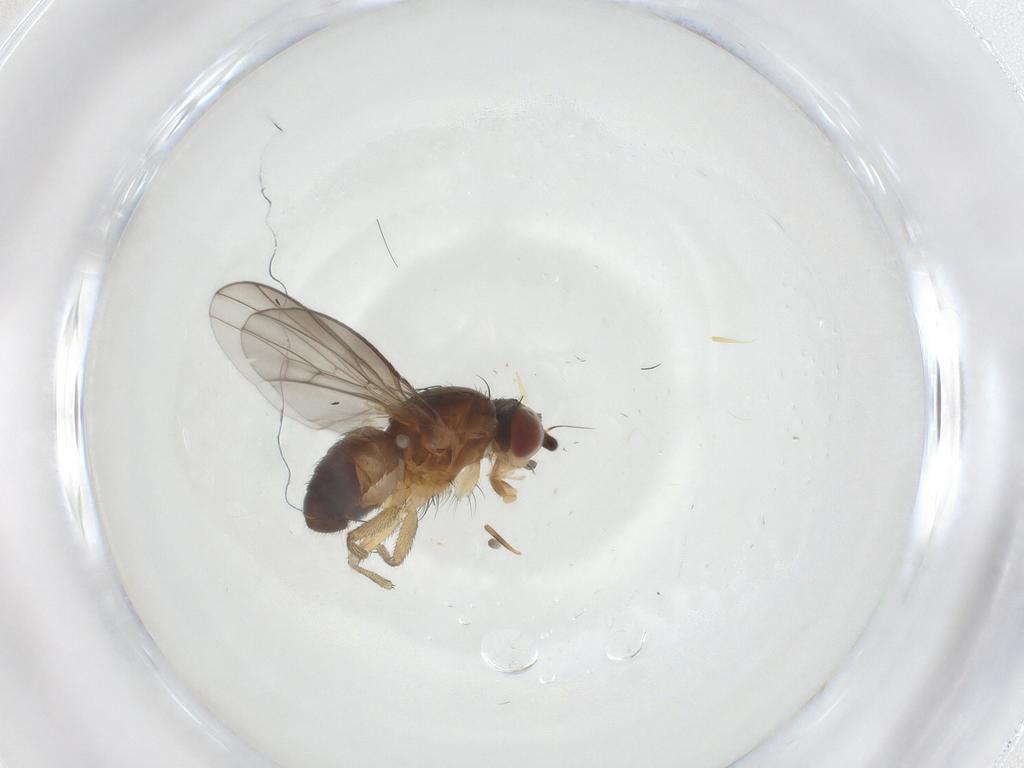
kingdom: Animalia
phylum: Arthropoda
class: Insecta
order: Diptera
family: Heleomyzidae
